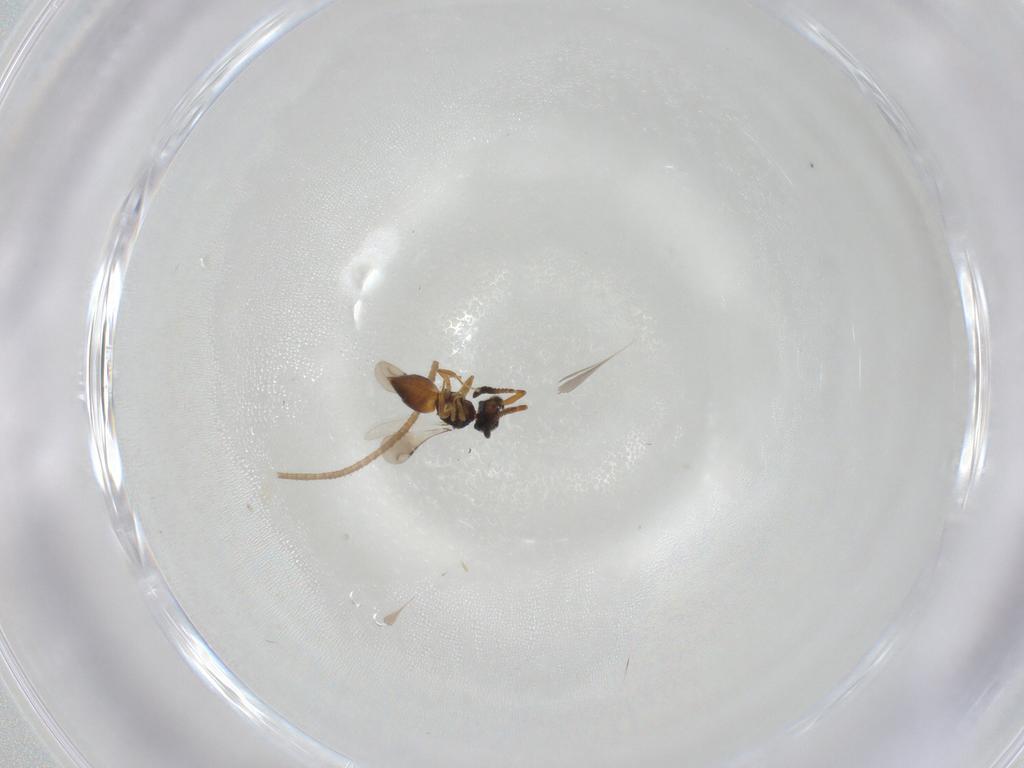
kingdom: Animalia
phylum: Arthropoda
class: Insecta
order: Hymenoptera
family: Ceraphronidae
